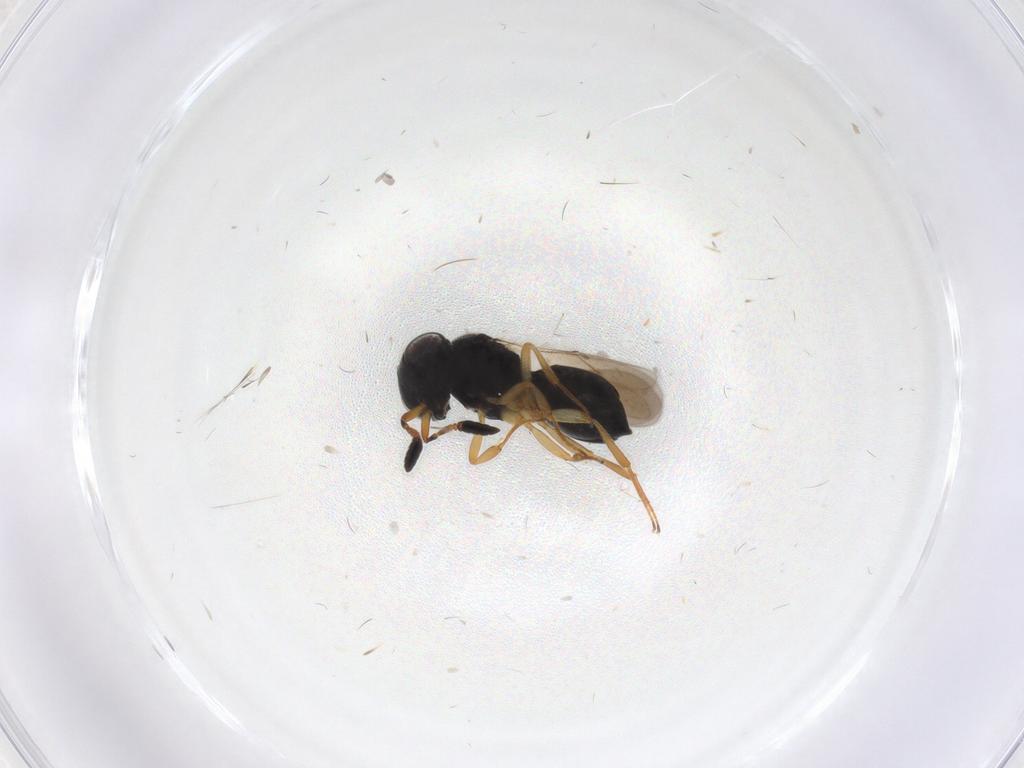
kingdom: Animalia
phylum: Arthropoda
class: Insecta
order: Hymenoptera
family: Scelionidae
